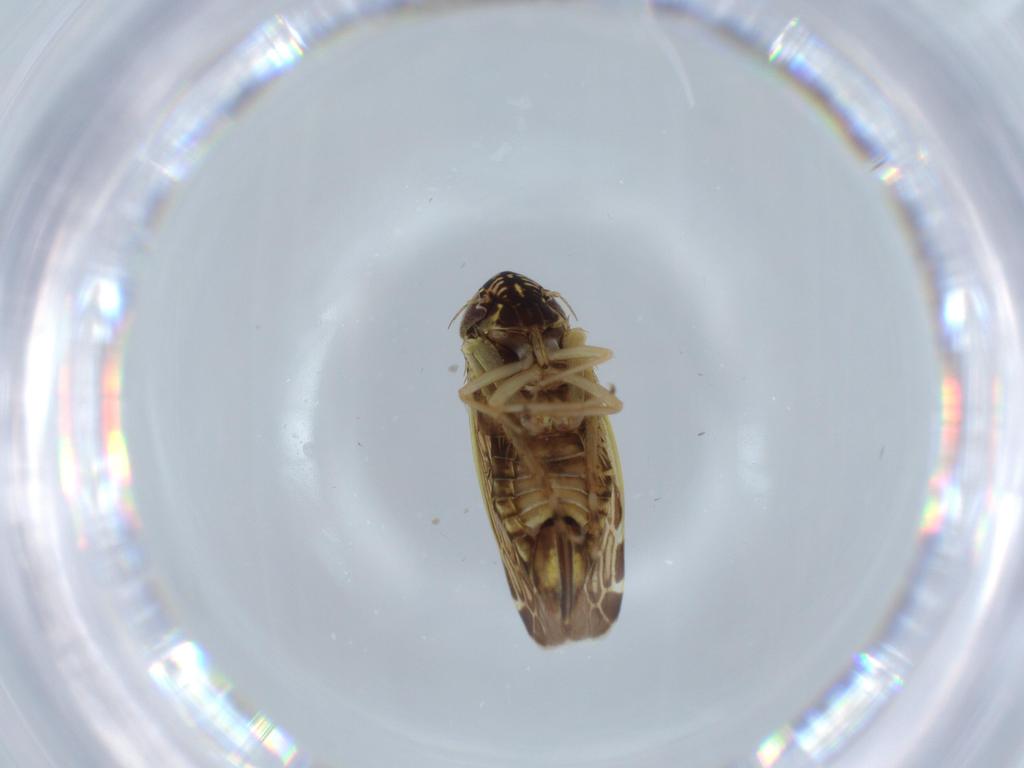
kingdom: Animalia
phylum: Arthropoda
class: Insecta
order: Hemiptera
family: Cicadellidae
